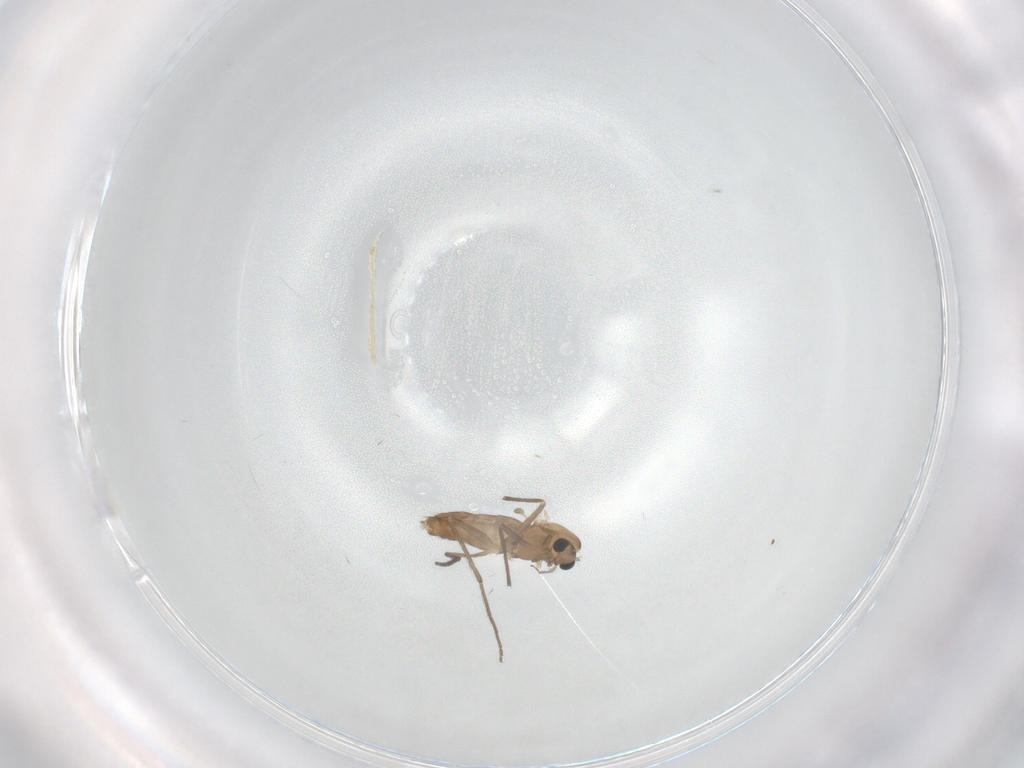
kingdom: Animalia
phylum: Arthropoda
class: Insecta
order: Diptera
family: Chironomidae
